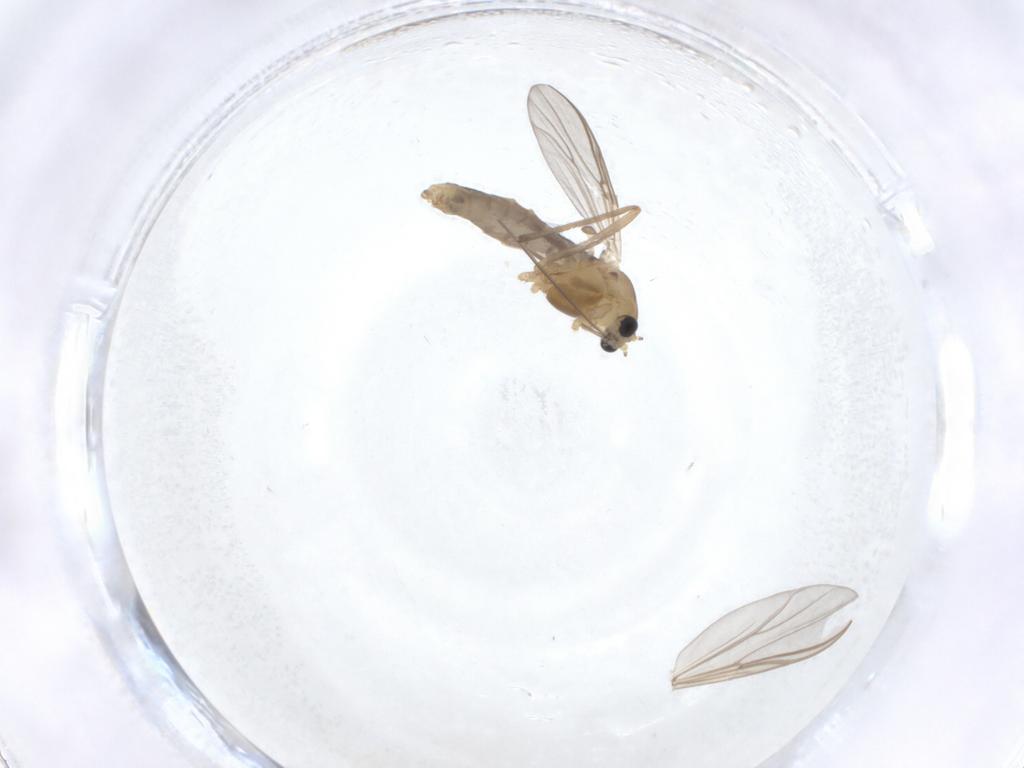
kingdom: Animalia
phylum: Arthropoda
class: Insecta
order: Diptera
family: Chironomidae
